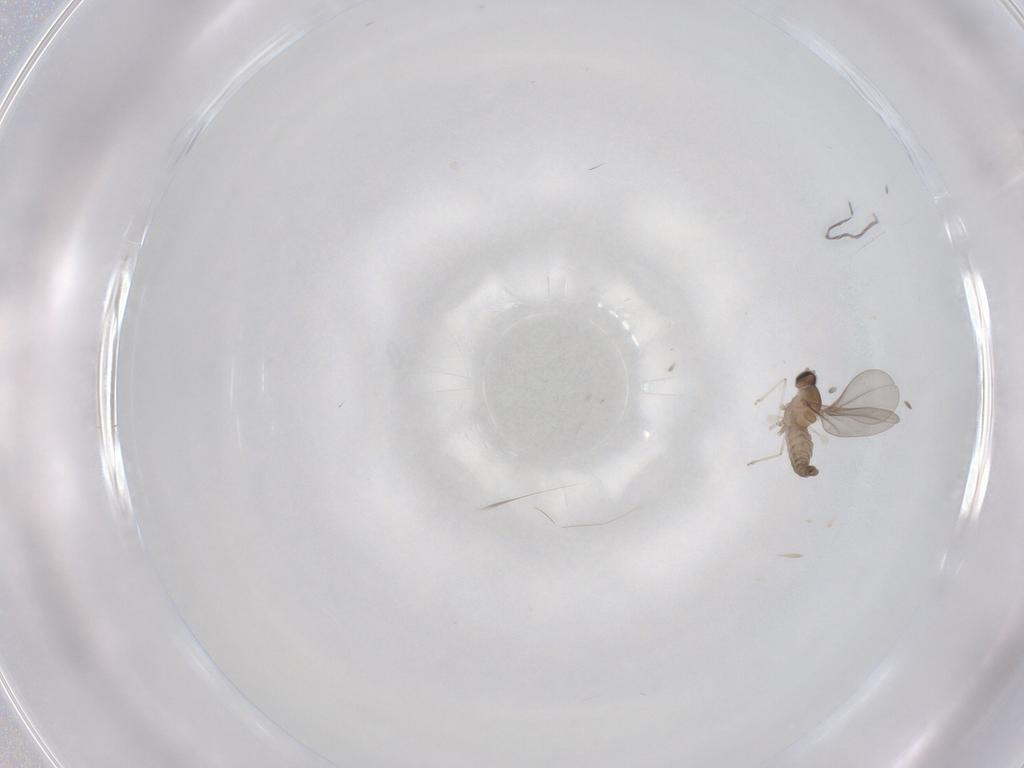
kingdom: Animalia
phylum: Arthropoda
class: Insecta
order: Diptera
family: Cecidomyiidae
